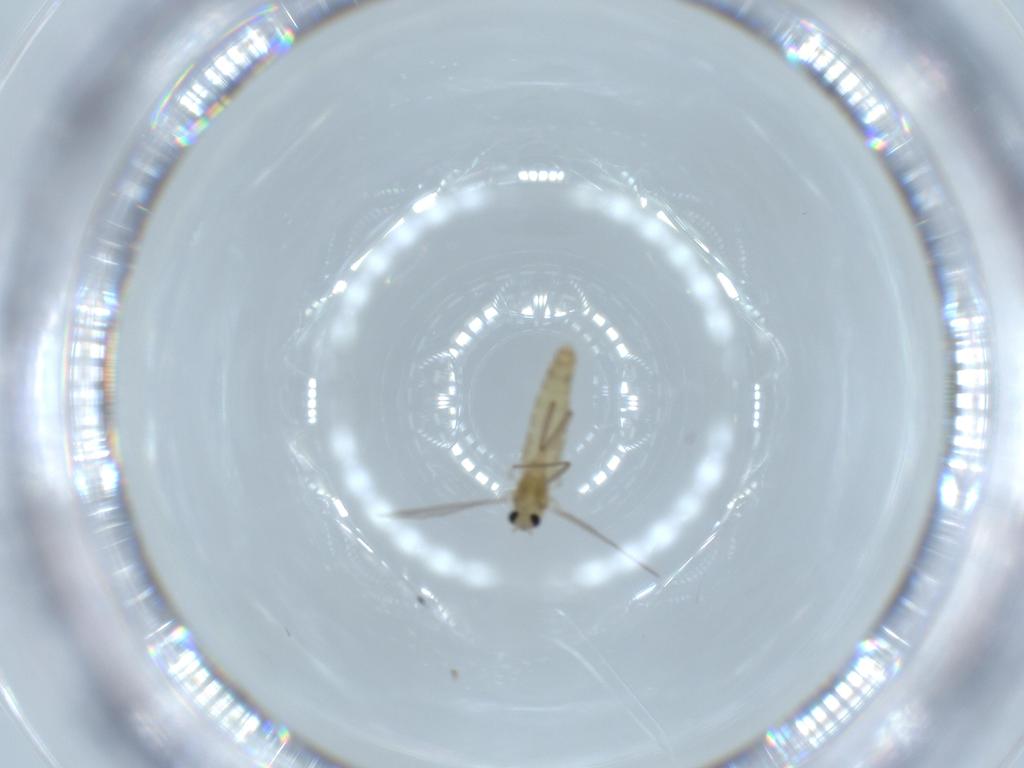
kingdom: Animalia
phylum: Arthropoda
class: Insecta
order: Diptera
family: Chironomidae
